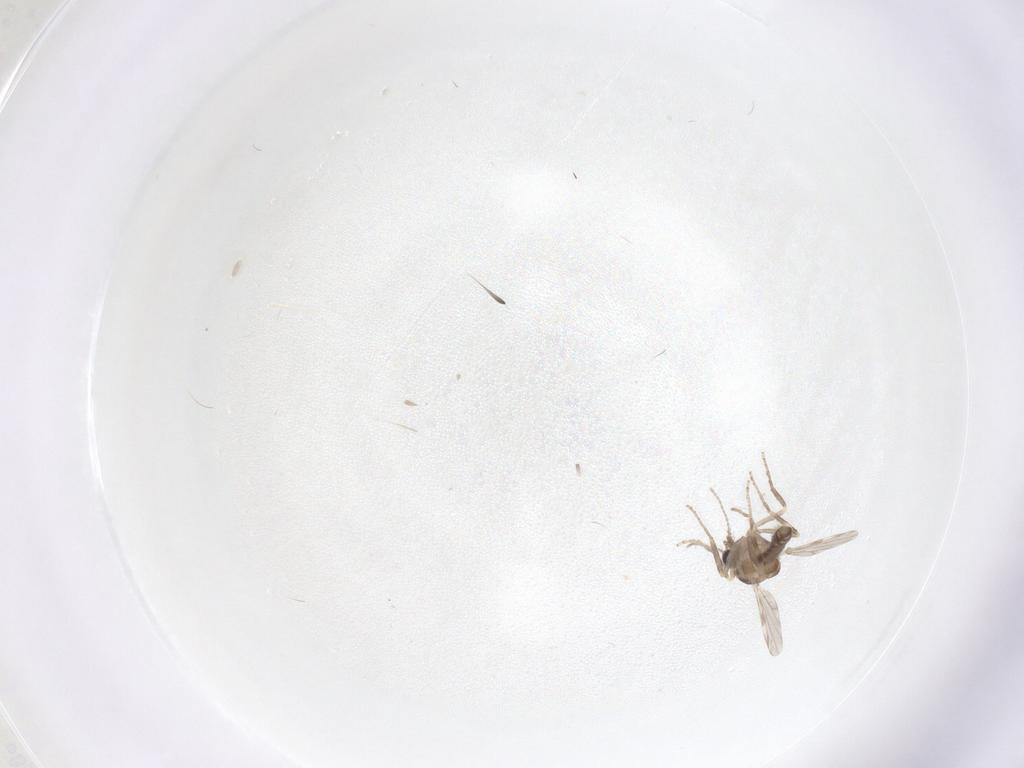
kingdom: Animalia
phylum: Arthropoda
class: Insecta
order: Diptera
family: Ceratopogonidae
